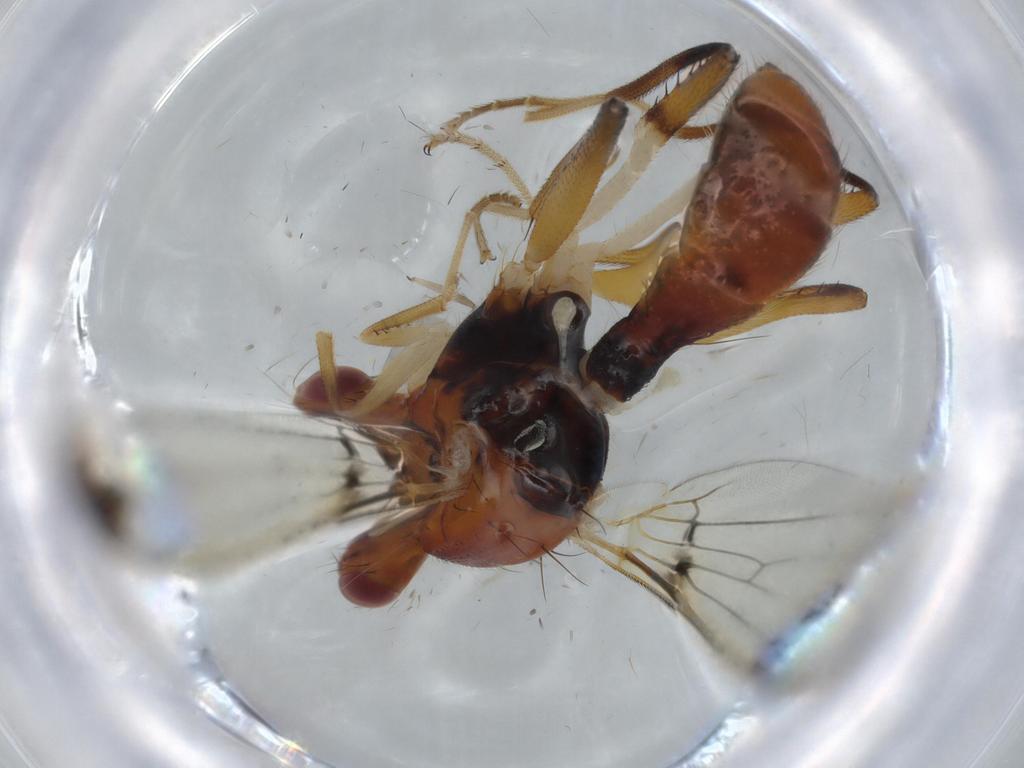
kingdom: Animalia
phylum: Arthropoda
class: Insecta
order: Diptera
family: Richardiidae
